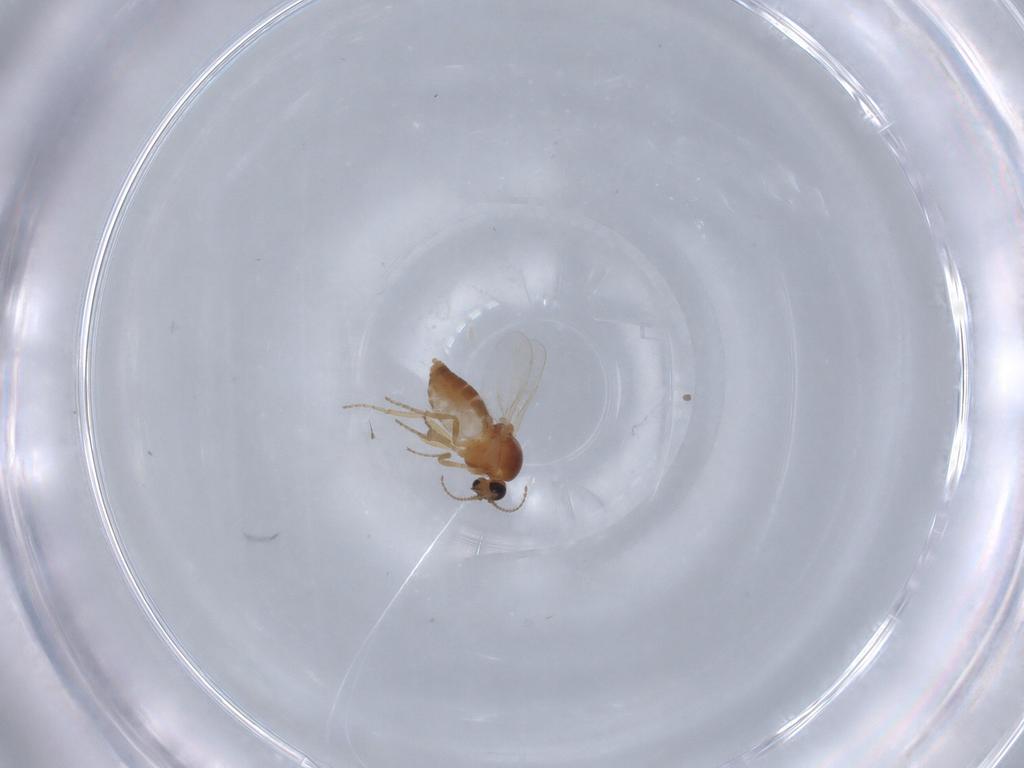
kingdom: Animalia
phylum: Arthropoda
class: Insecta
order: Diptera
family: Ceratopogonidae
